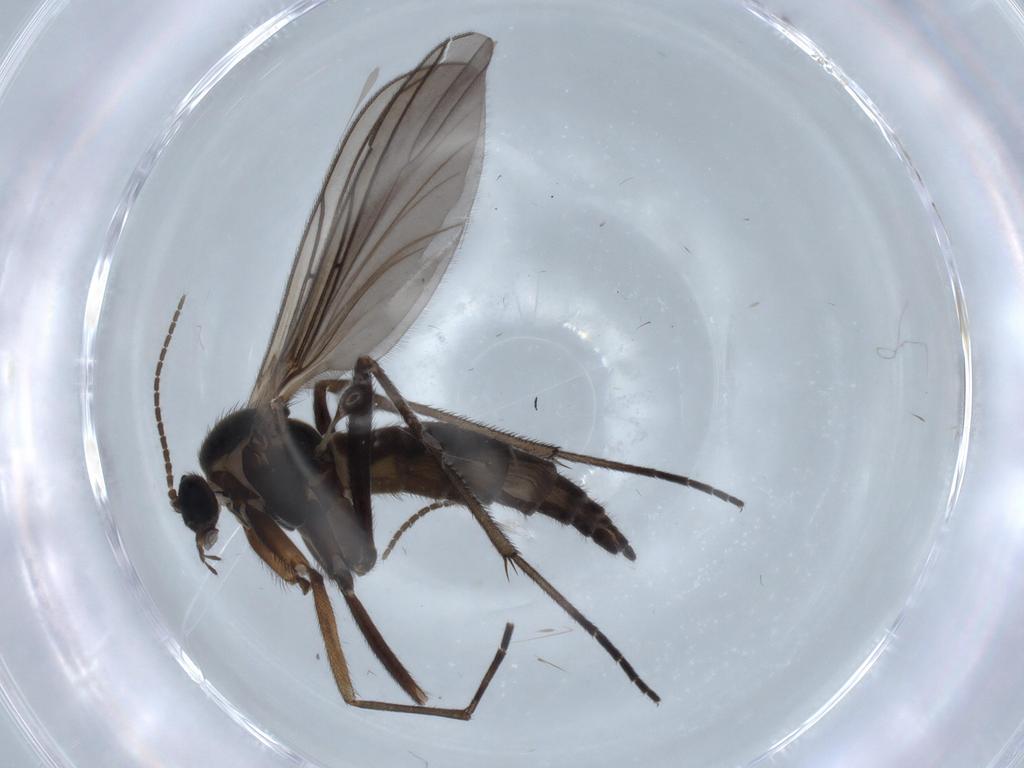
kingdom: Animalia
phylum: Arthropoda
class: Insecta
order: Diptera
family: Sciaridae
